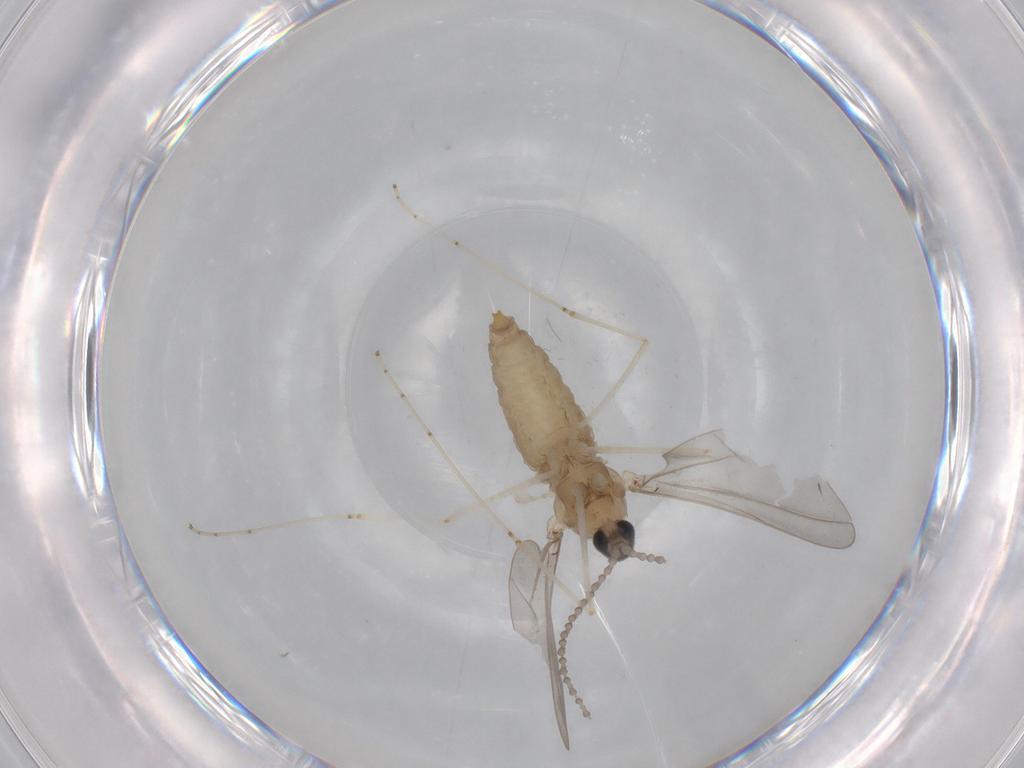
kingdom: Animalia
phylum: Arthropoda
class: Insecta
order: Diptera
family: Cecidomyiidae
